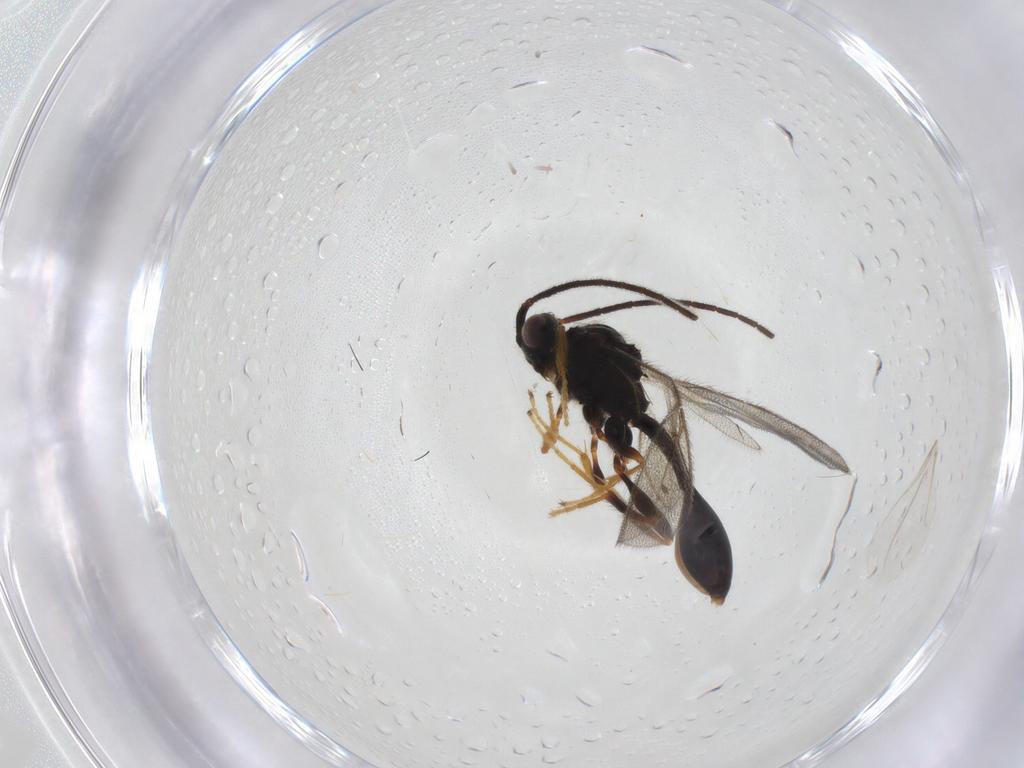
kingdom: Animalia
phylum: Arthropoda
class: Insecta
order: Hymenoptera
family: Diapriidae
